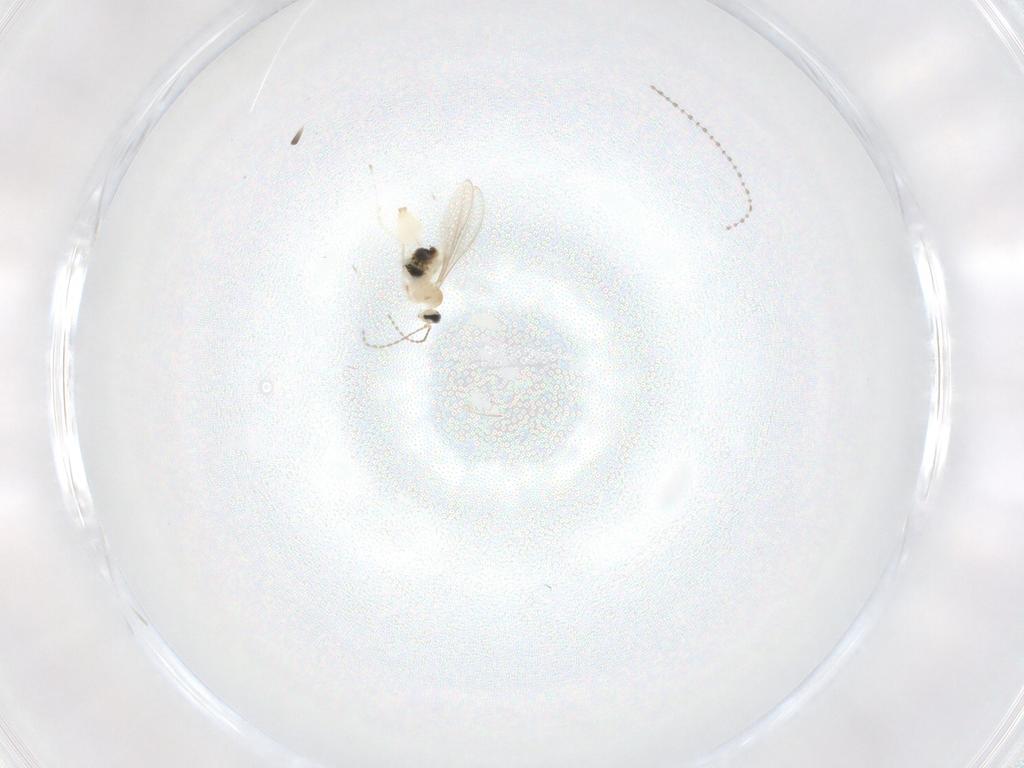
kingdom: Animalia
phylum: Arthropoda
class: Insecta
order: Diptera
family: Cecidomyiidae
